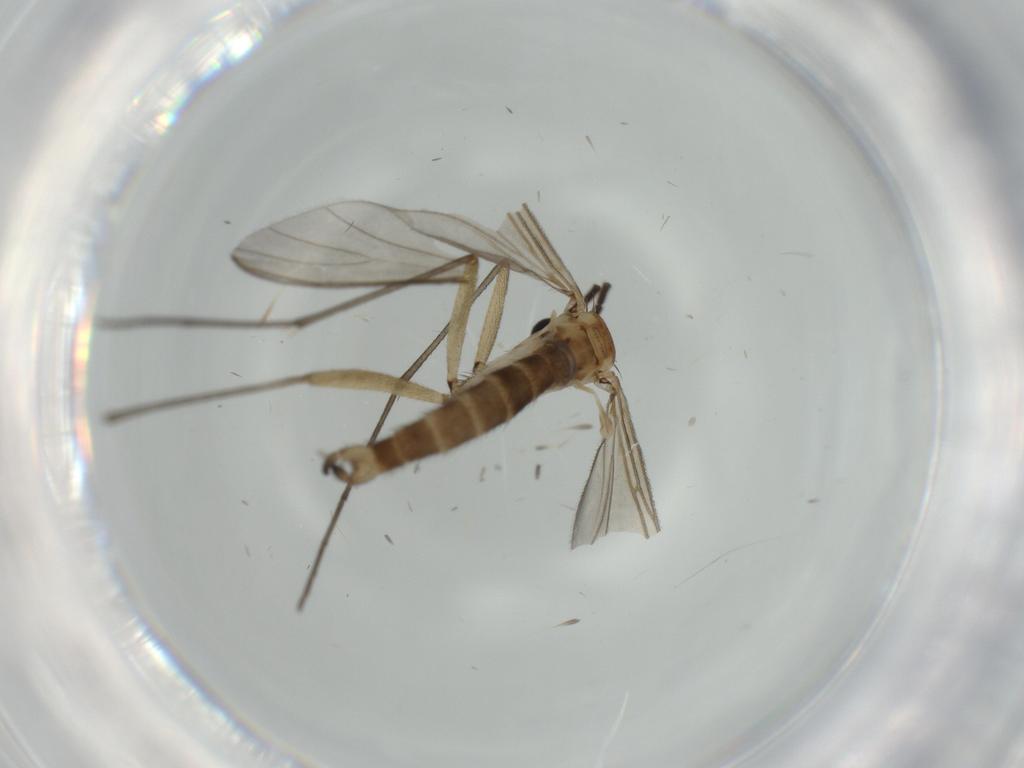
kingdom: Animalia
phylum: Arthropoda
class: Insecta
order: Diptera
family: Sciaridae
